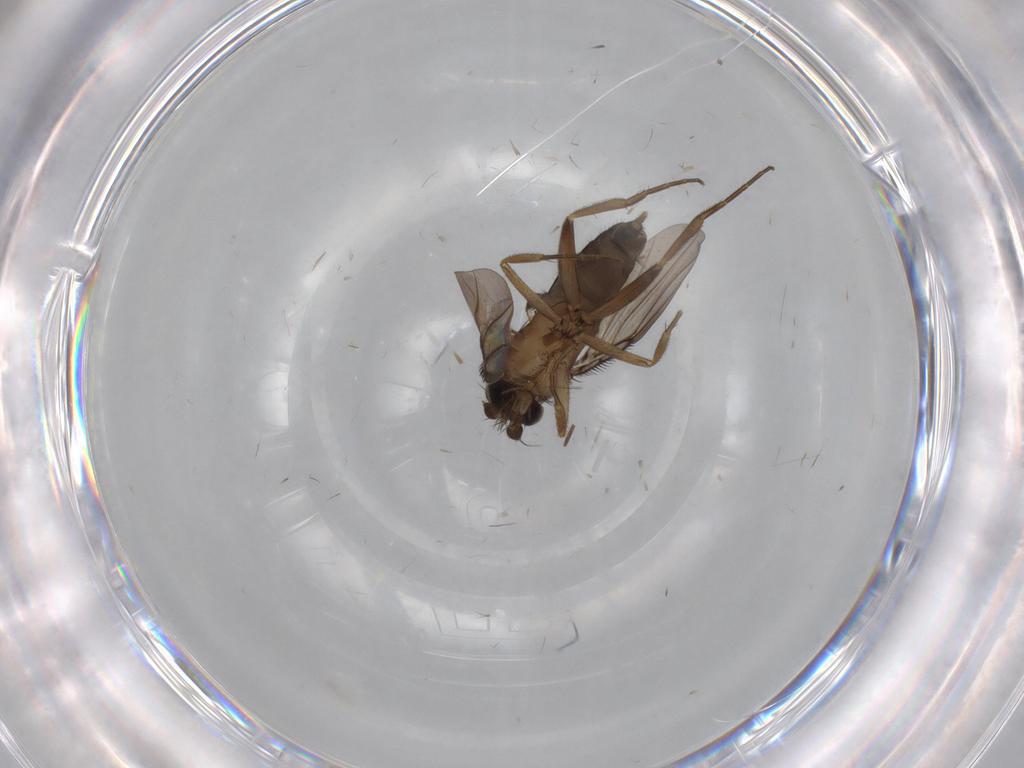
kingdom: Animalia
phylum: Arthropoda
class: Insecta
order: Diptera
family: Phoridae
